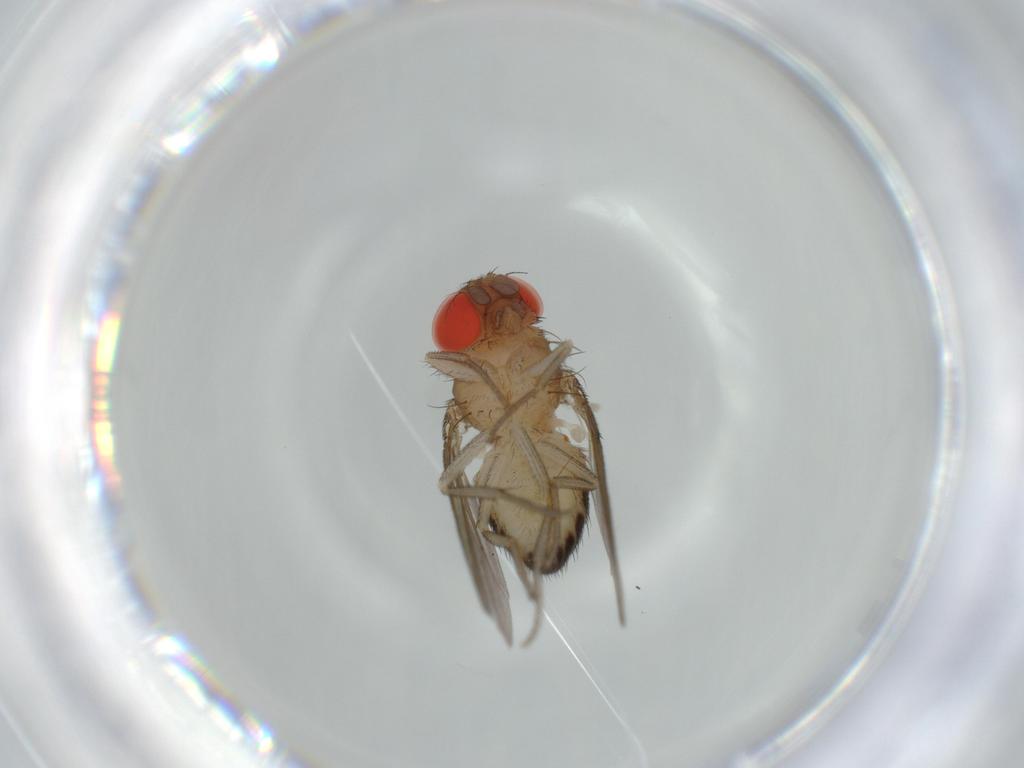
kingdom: Animalia
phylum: Arthropoda
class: Insecta
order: Diptera
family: Drosophilidae
